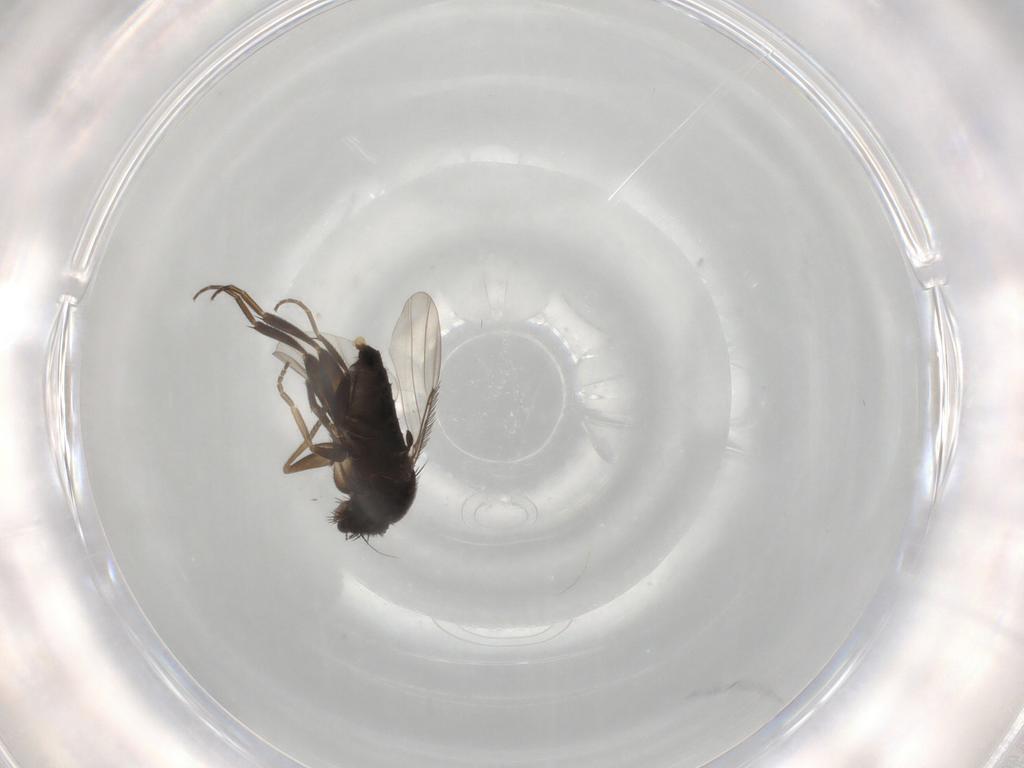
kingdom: Animalia
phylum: Arthropoda
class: Insecta
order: Diptera
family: Phoridae
